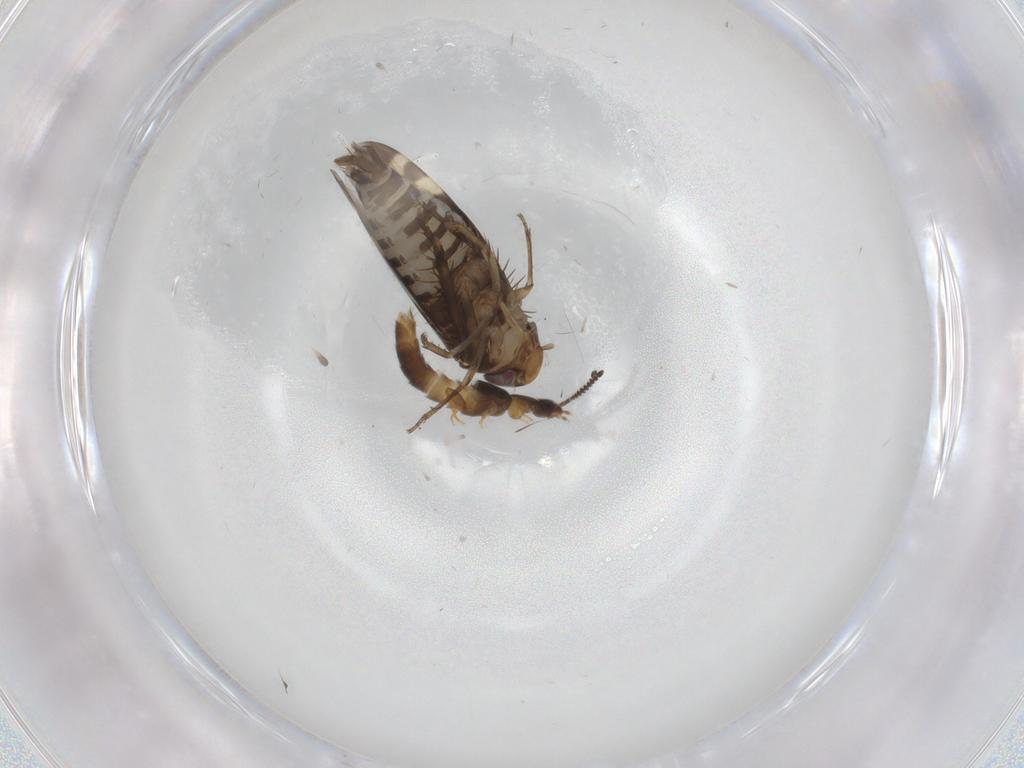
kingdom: Animalia
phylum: Arthropoda
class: Insecta
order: Hemiptera
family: Cicadellidae
